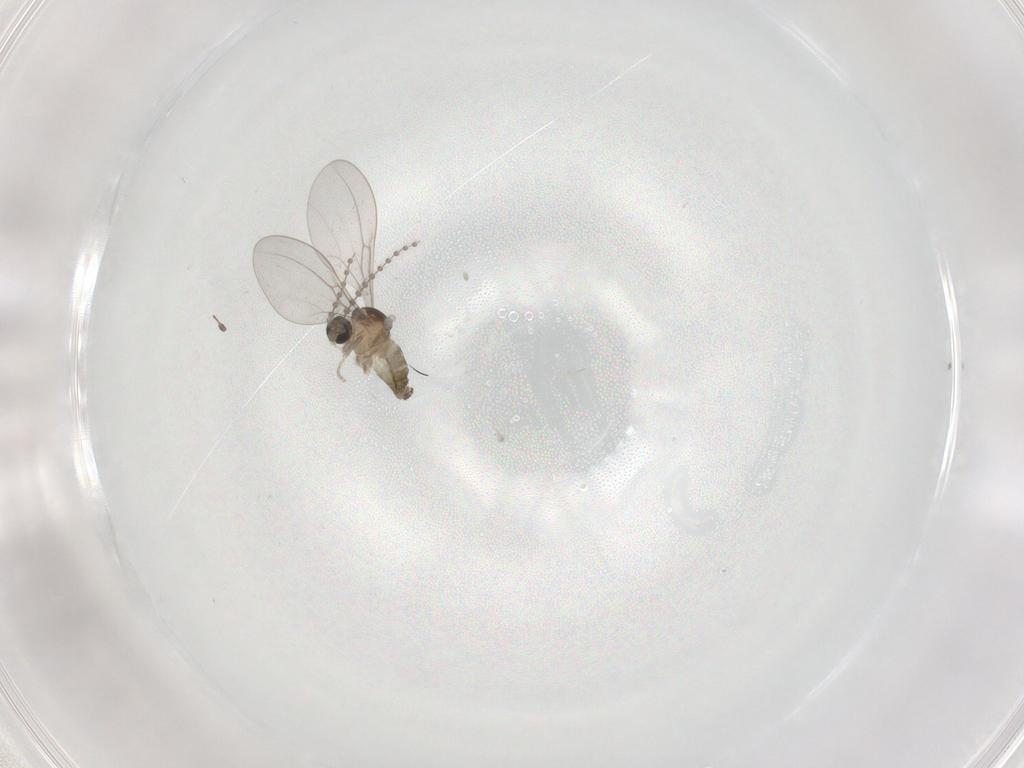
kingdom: Animalia
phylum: Arthropoda
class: Insecta
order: Diptera
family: Cecidomyiidae
